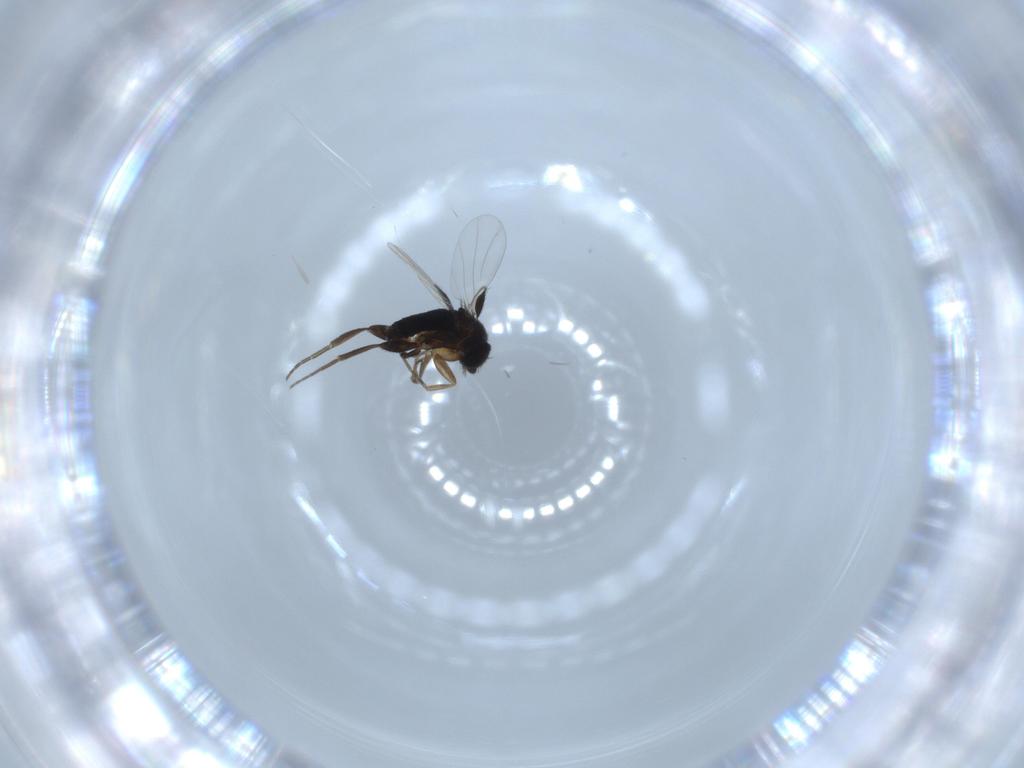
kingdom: Animalia
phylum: Arthropoda
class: Insecta
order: Diptera
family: Phoridae
